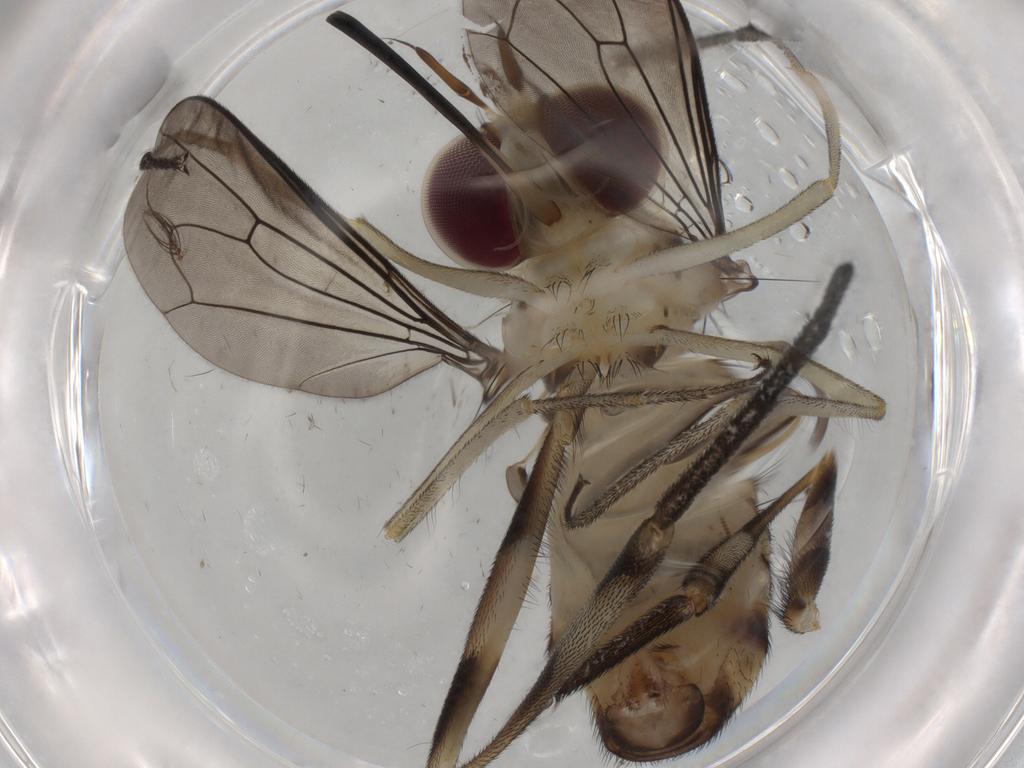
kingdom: Animalia
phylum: Arthropoda
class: Insecta
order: Diptera
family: Conopidae
